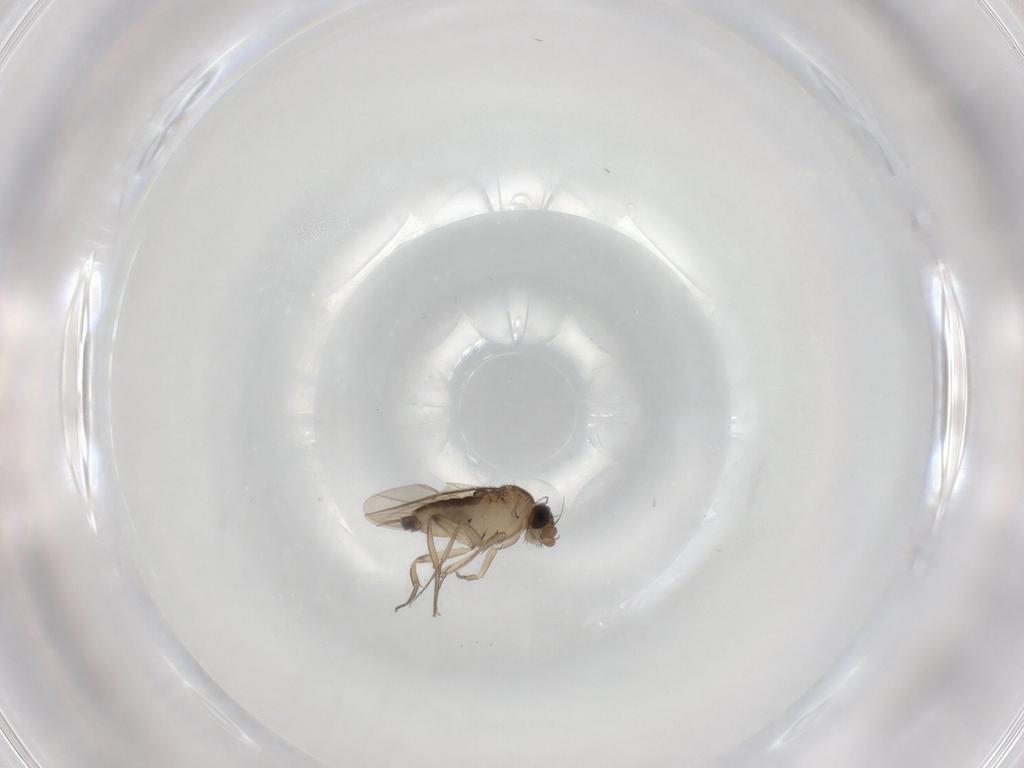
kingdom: Animalia
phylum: Arthropoda
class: Insecta
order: Diptera
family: Phoridae
